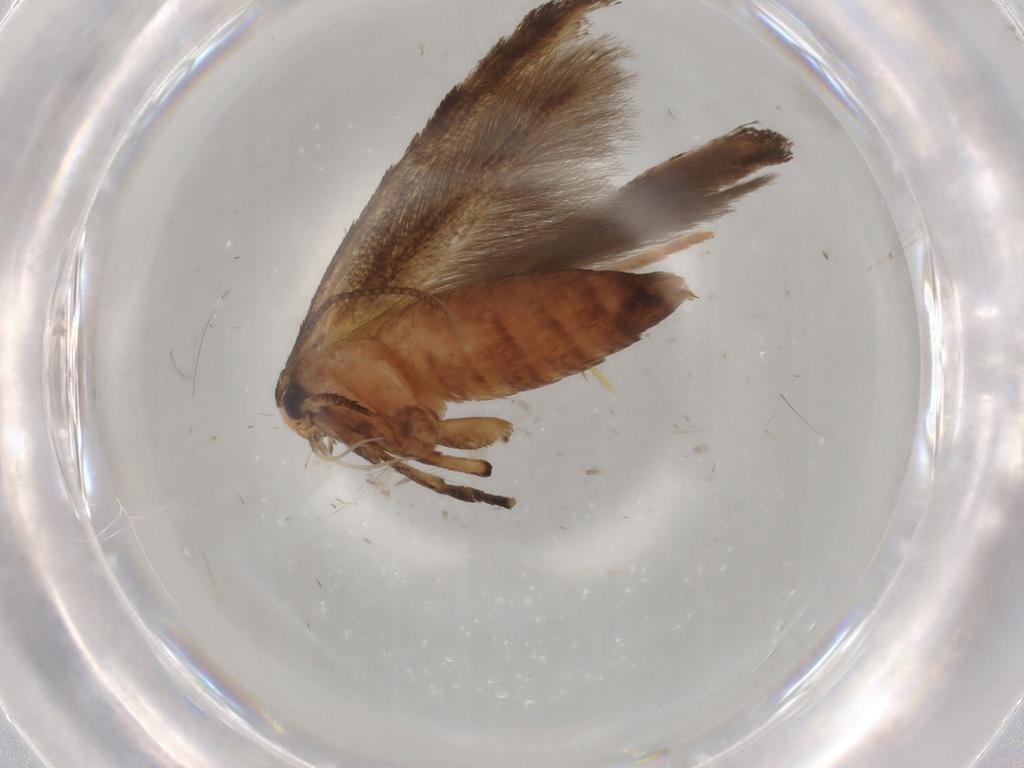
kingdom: Animalia
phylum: Arthropoda
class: Insecta
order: Lepidoptera
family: Cosmopterigidae
